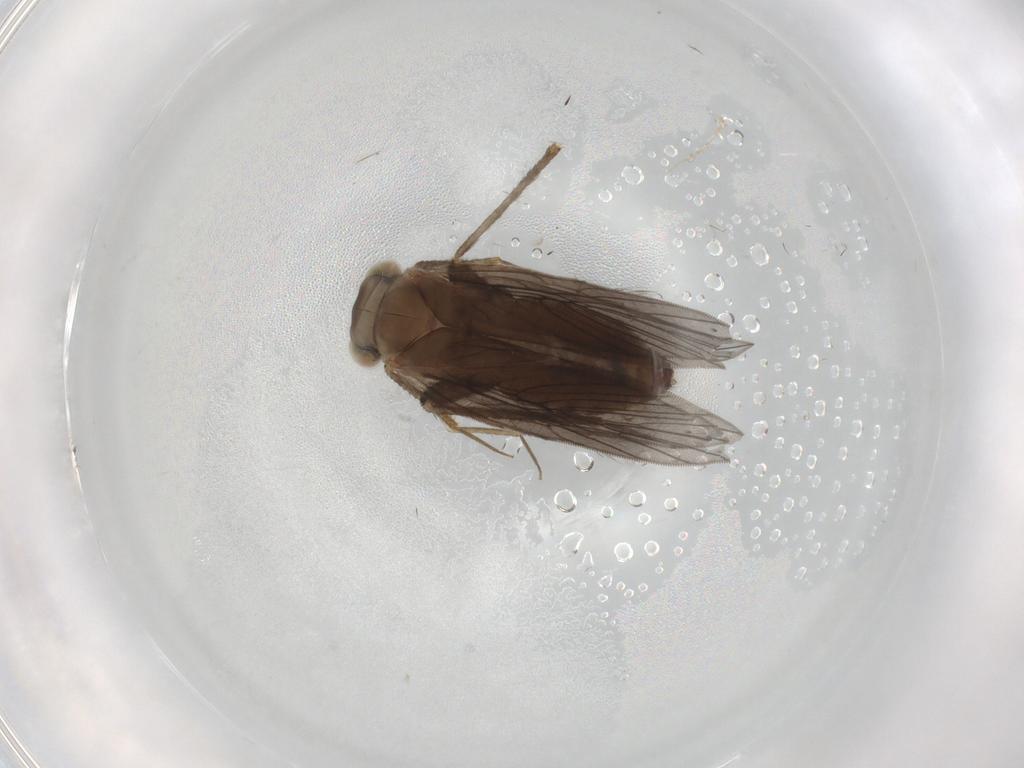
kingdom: Animalia
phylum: Arthropoda
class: Insecta
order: Psocodea
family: Lepidopsocidae
